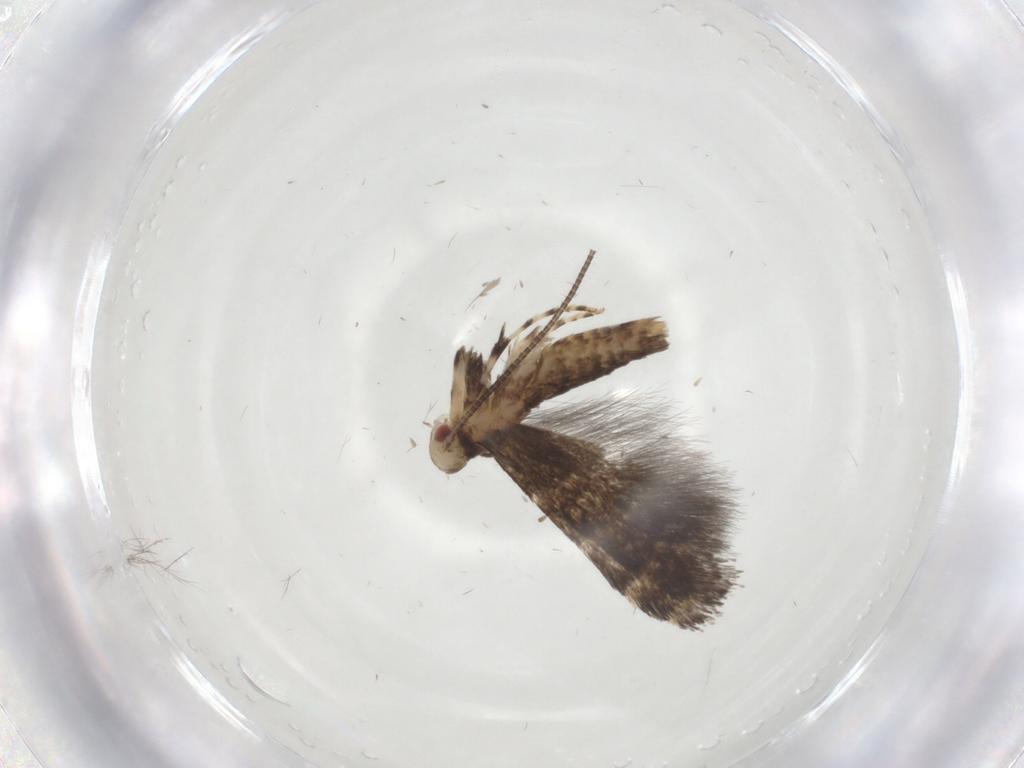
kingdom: Animalia
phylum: Arthropoda
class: Insecta
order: Lepidoptera
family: Gracillariidae
